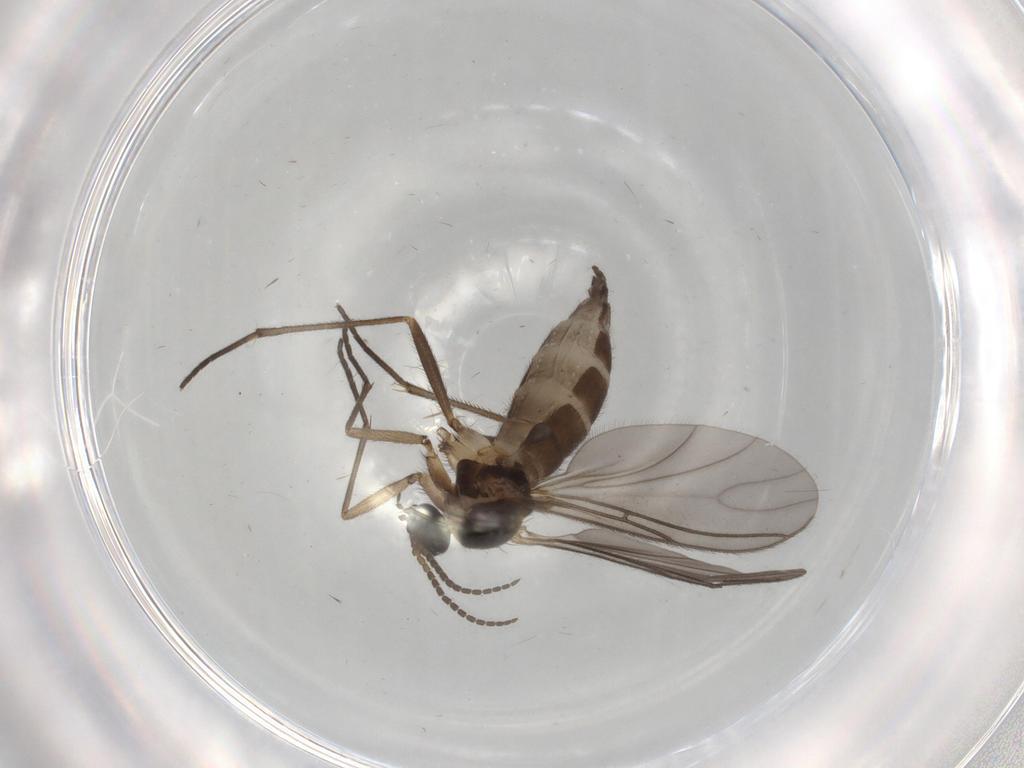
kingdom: Animalia
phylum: Arthropoda
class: Insecta
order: Diptera
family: Sciaridae
